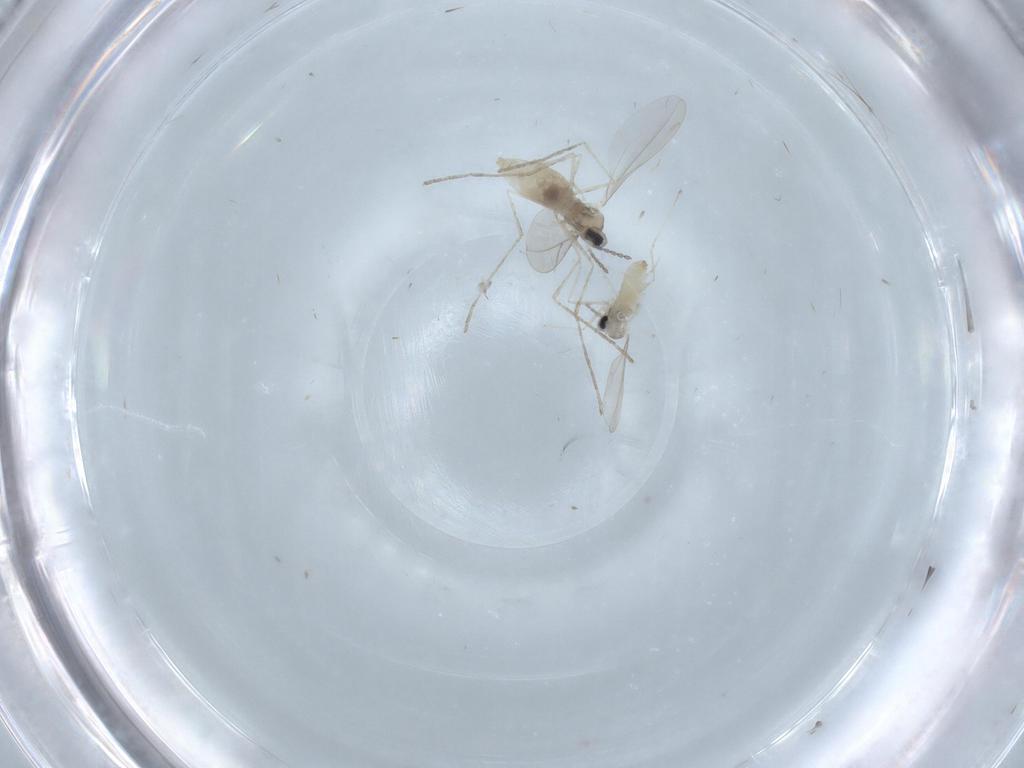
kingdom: Animalia
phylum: Arthropoda
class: Insecta
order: Diptera
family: Cecidomyiidae
